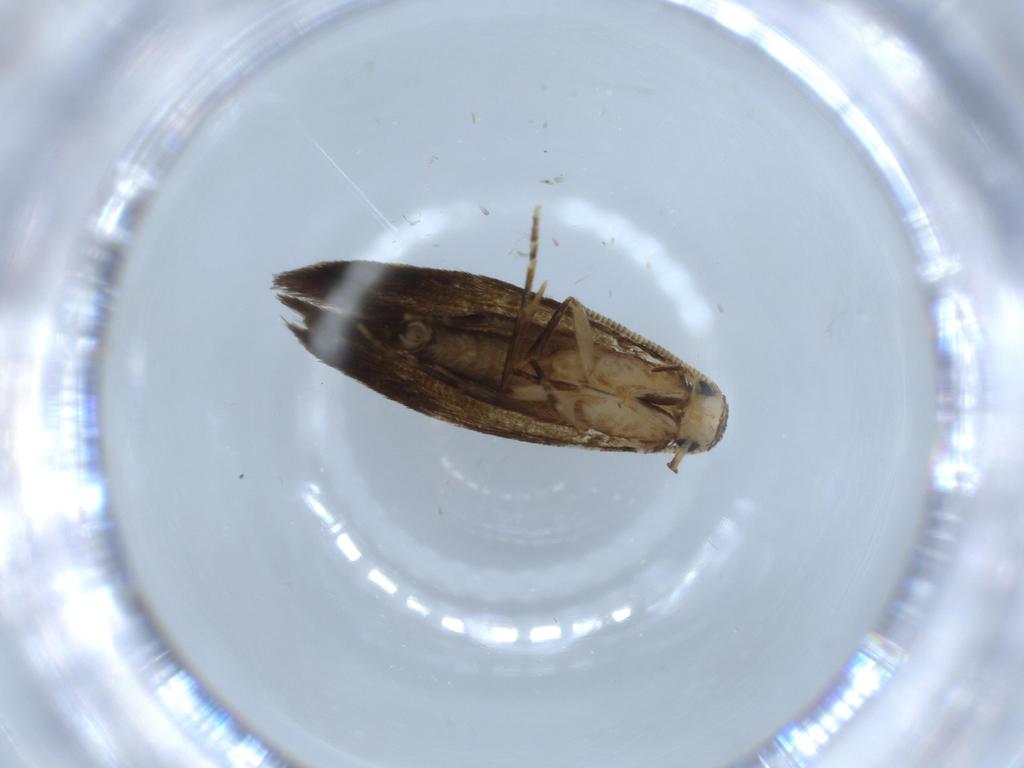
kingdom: Animalia
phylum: Arthropoda
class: Insecta
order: Lepidoptera
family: Tineidae
